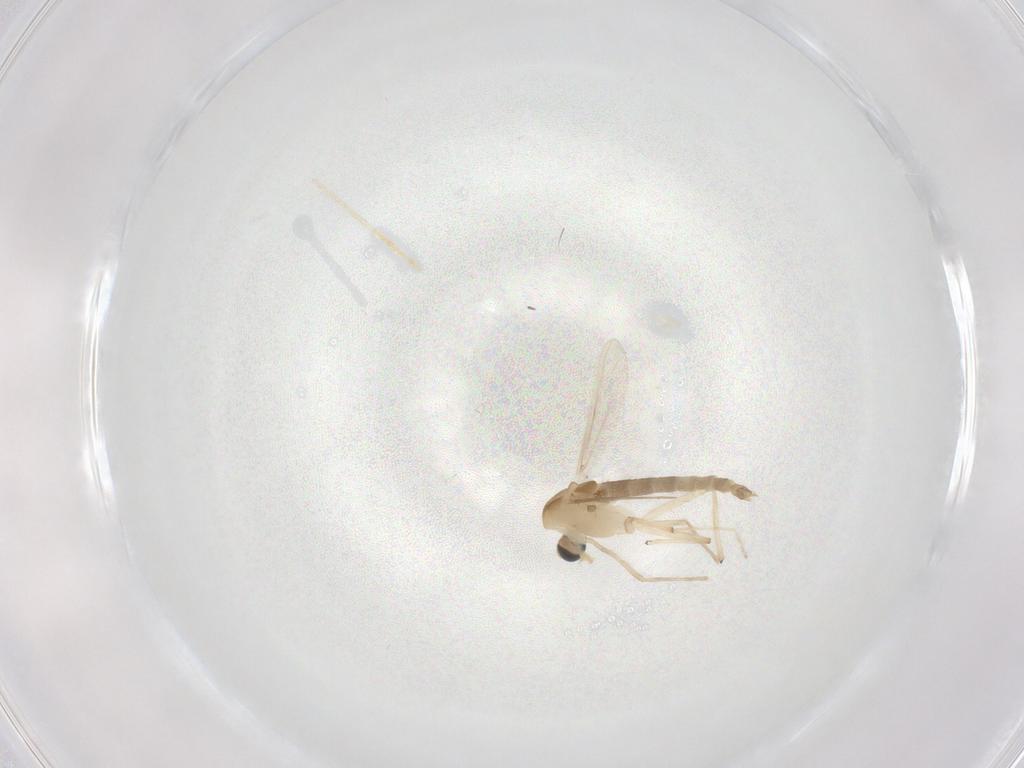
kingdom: Animalia
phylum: Arthropoda
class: Insecta
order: Diptera
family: Chironomidae
